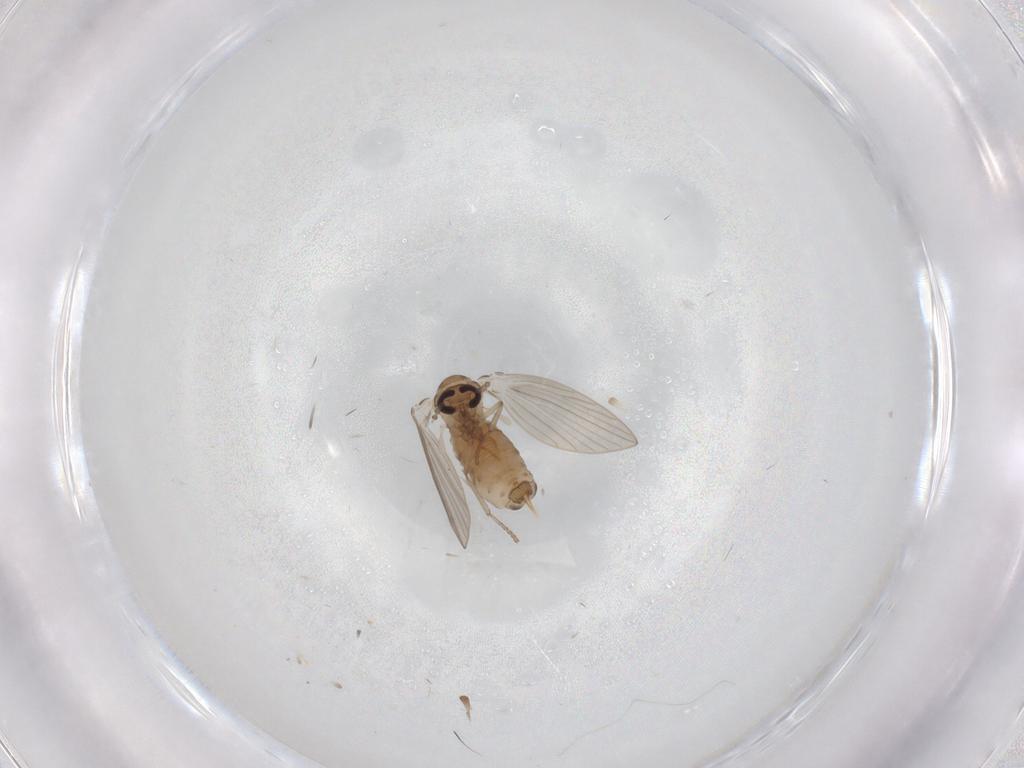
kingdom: Animalia
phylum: Arthropoda
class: Insecta
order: Diptera
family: Psychodidae
